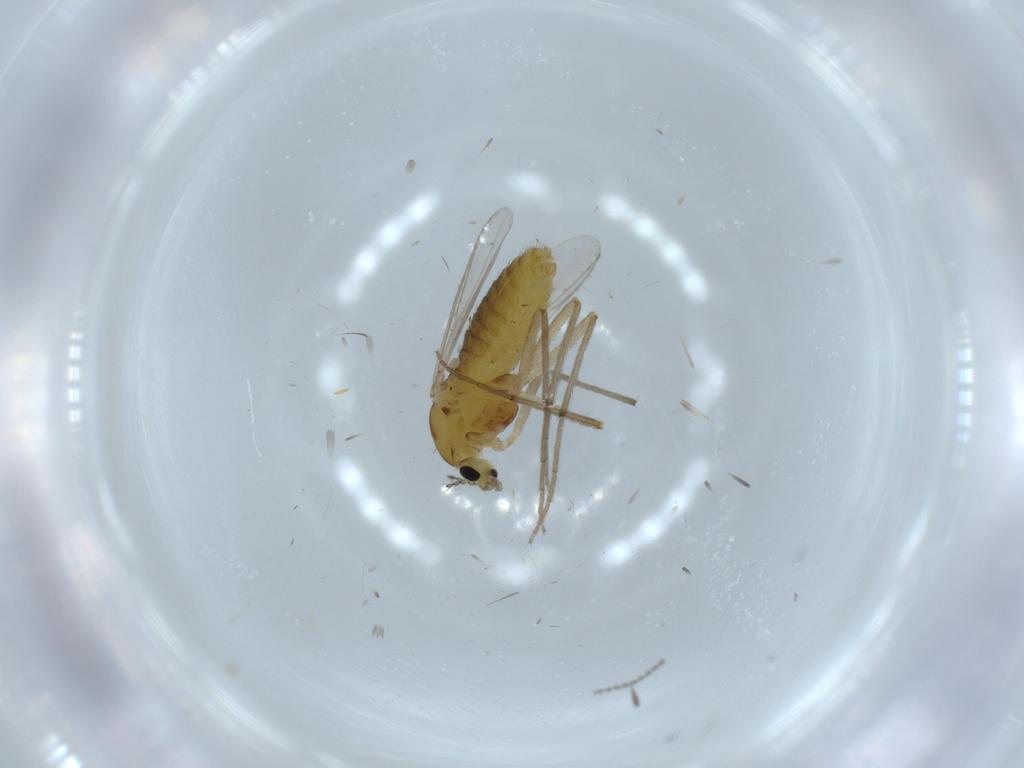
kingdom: Animalia
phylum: Arthropoda
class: Insecta
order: Diptera
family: Chironomidae
